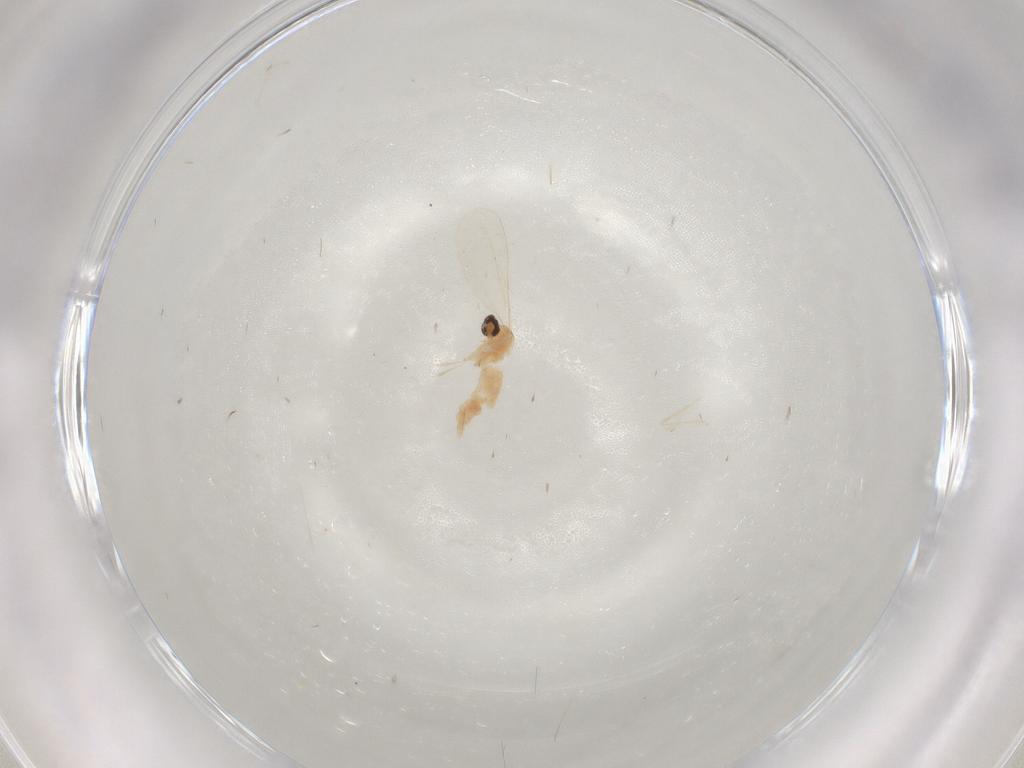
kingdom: Animalia
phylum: Arthropoda
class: Insecta
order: Diptera
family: Cecidomyiidae
